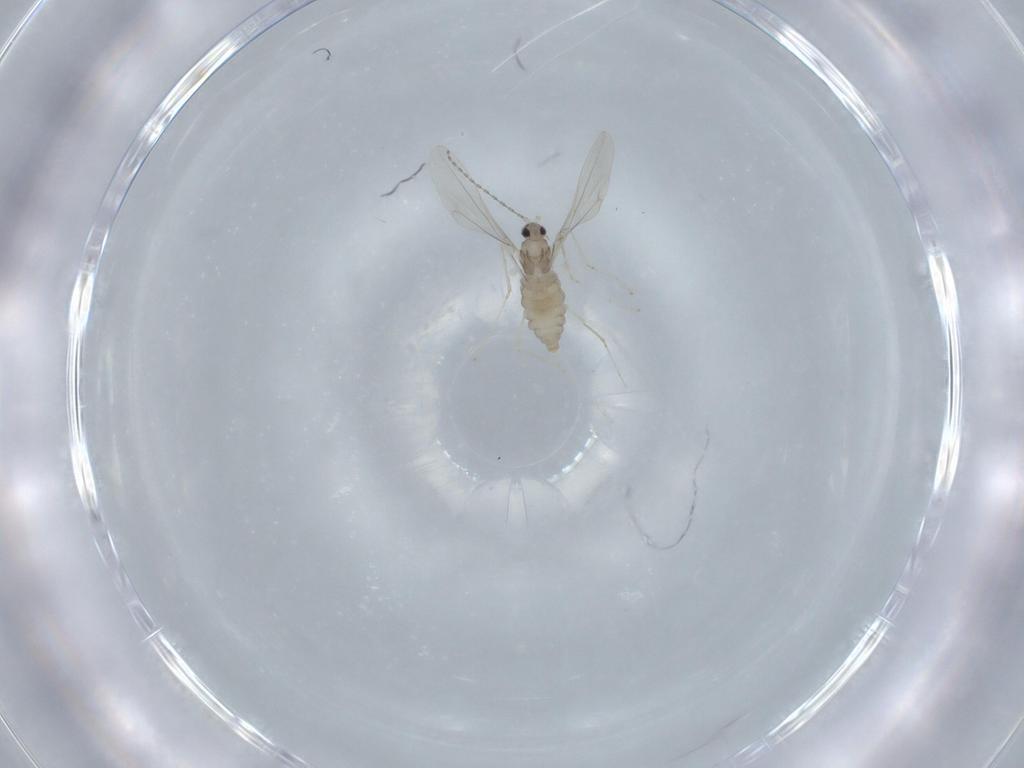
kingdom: Animalia
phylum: Arthropoda
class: Insecta
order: Diptera
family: Cecidomyiidae
